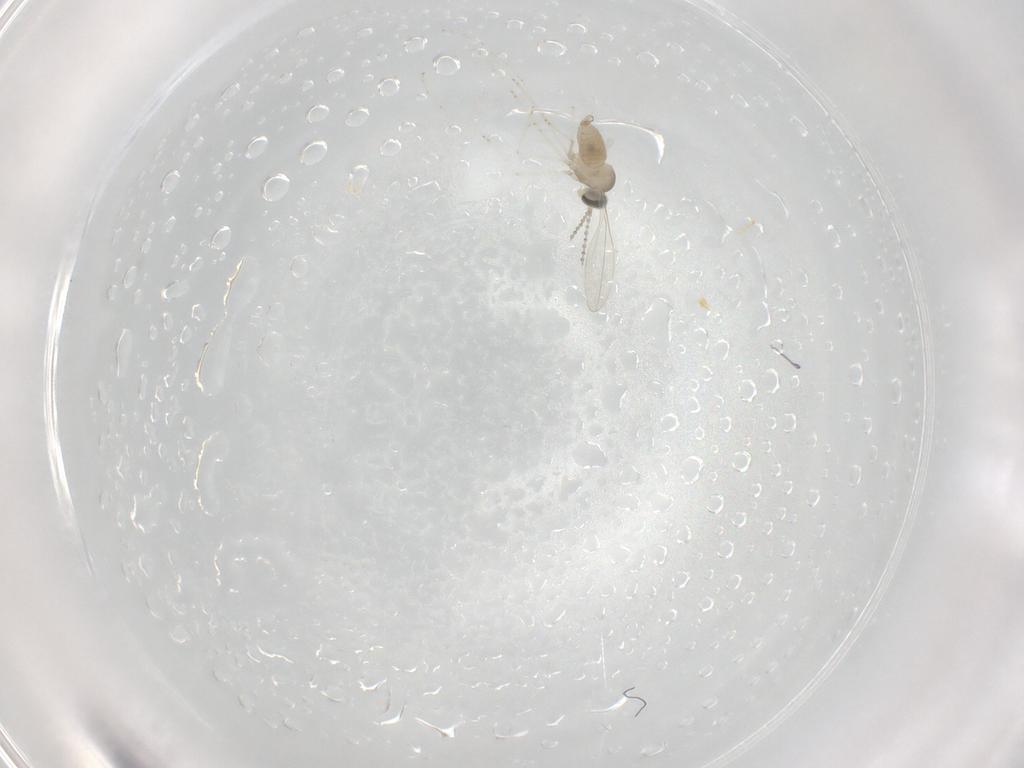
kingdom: Animalia
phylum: Arthropoda
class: Insecta
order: Diptera
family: Cecidomyiidae
